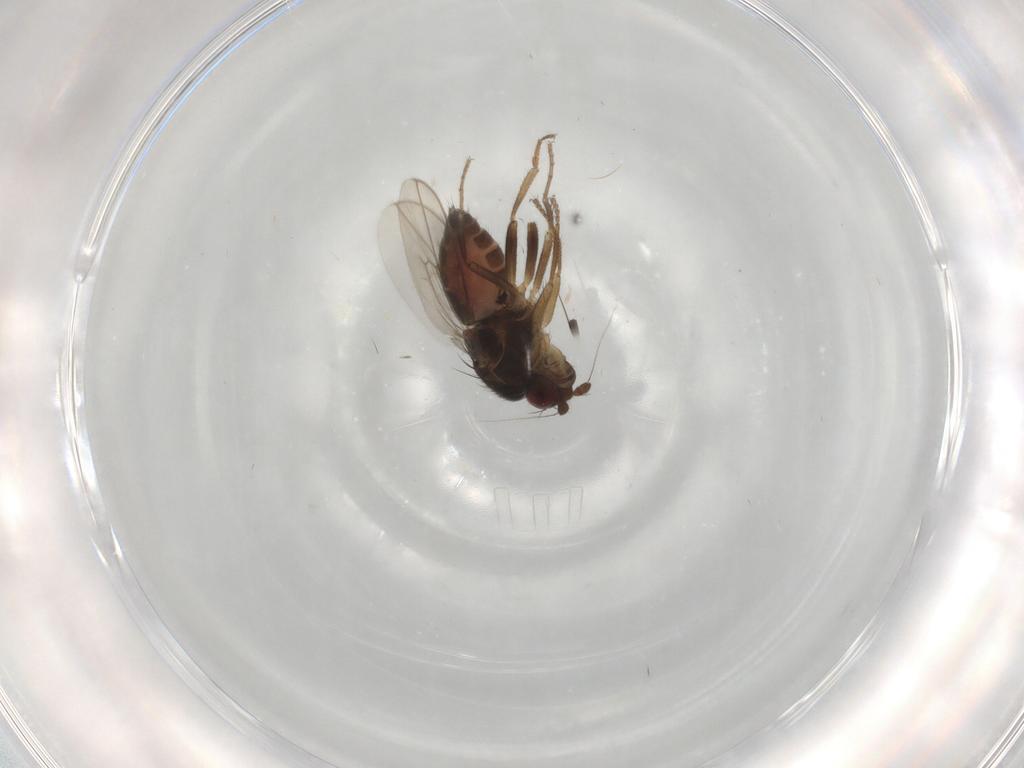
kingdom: Animalia
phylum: Arthropoda
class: Insecta
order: Diptera
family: Sphaeroceridae
